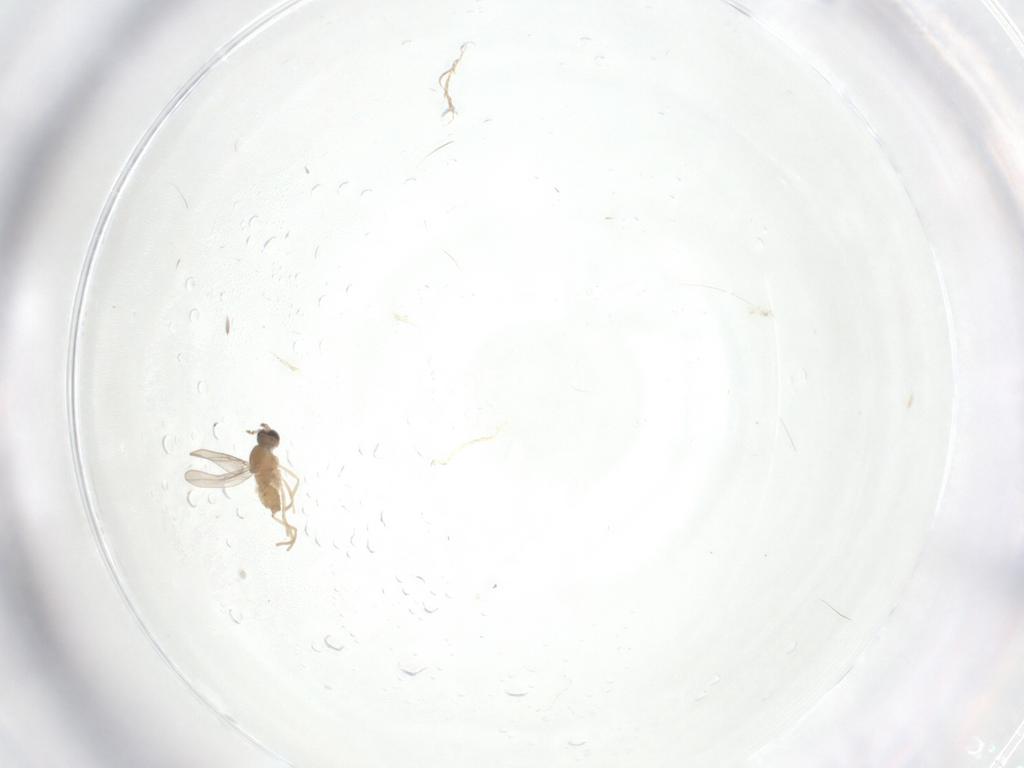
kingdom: Animalia
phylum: Arthropoda
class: Insecta
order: Diptera
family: Cecidomyiidae
